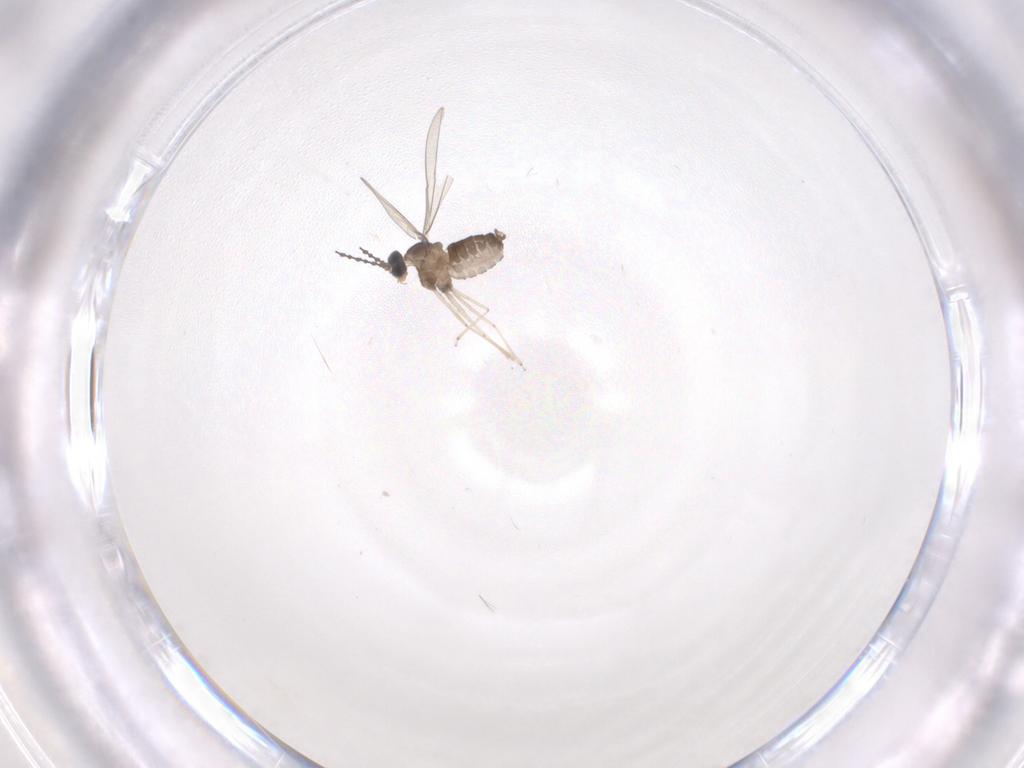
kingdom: Animalia
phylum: Arthropoda
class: Insecta
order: Diptera
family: Cecidomyiidae
